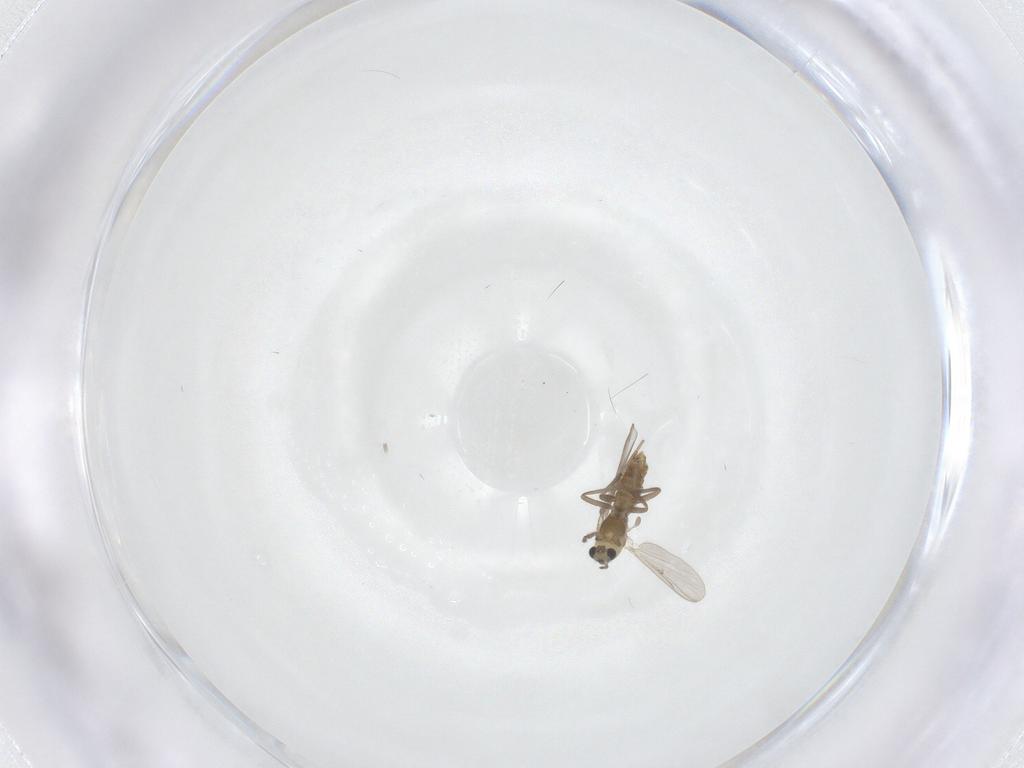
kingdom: Animalia
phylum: Arthropoda
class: Insecta
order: Diptera
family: Chironomidae
